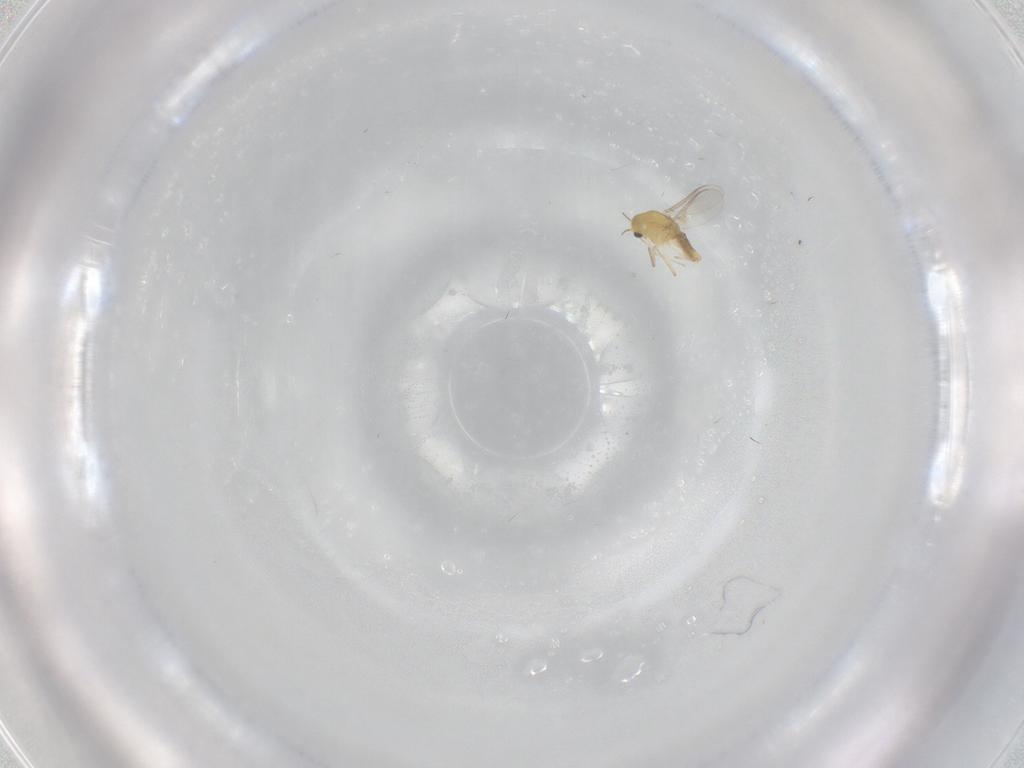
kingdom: Animalia
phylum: Arthropoda
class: Insecta
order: Diptera
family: Chironomidae
